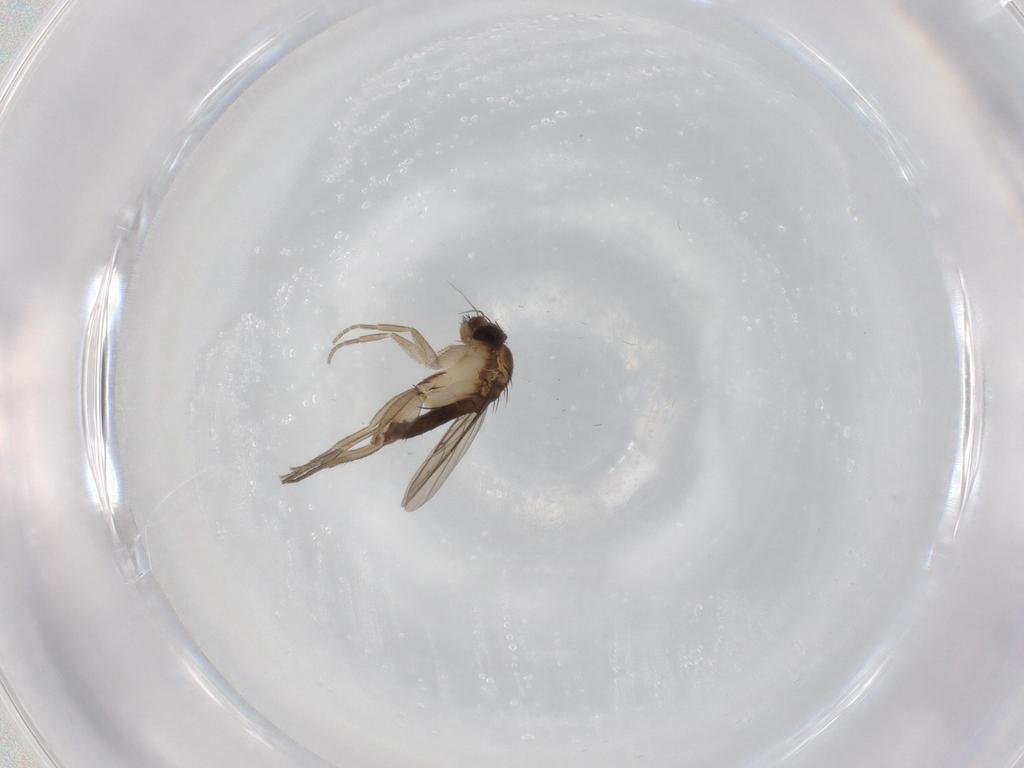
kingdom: Animalia
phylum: Arthropoda
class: Insecta
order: Diptera
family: Phoridae
